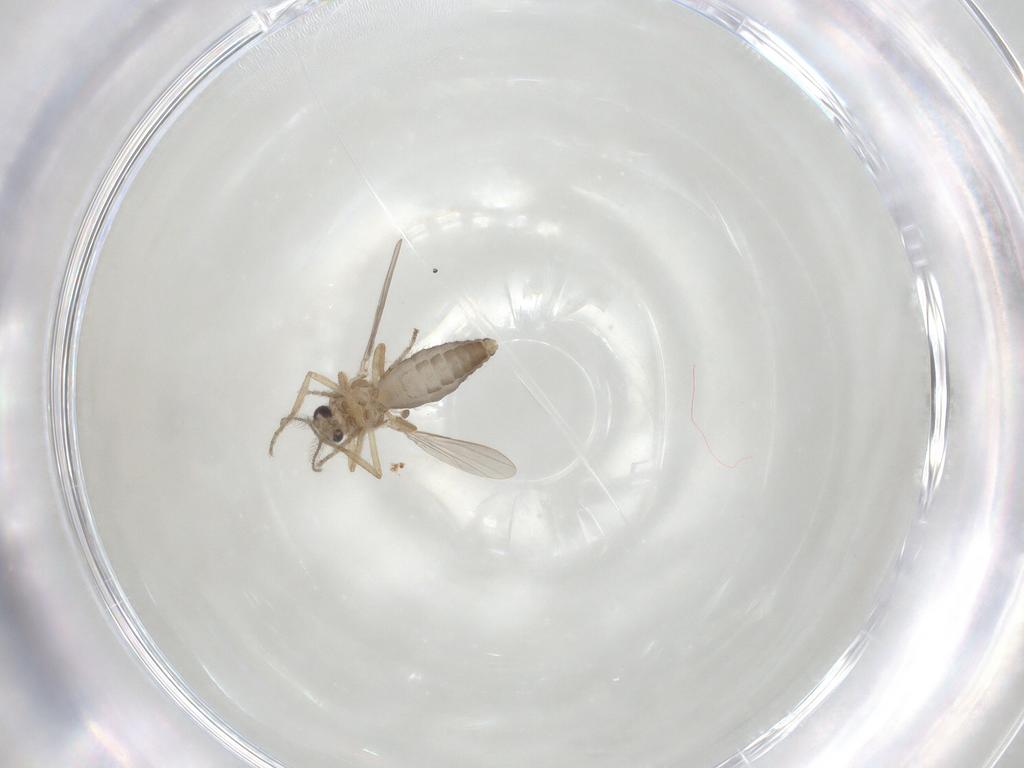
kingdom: Animalia
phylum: Arthropoda
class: Insecta
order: Diptera
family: Ceratopogonidae
